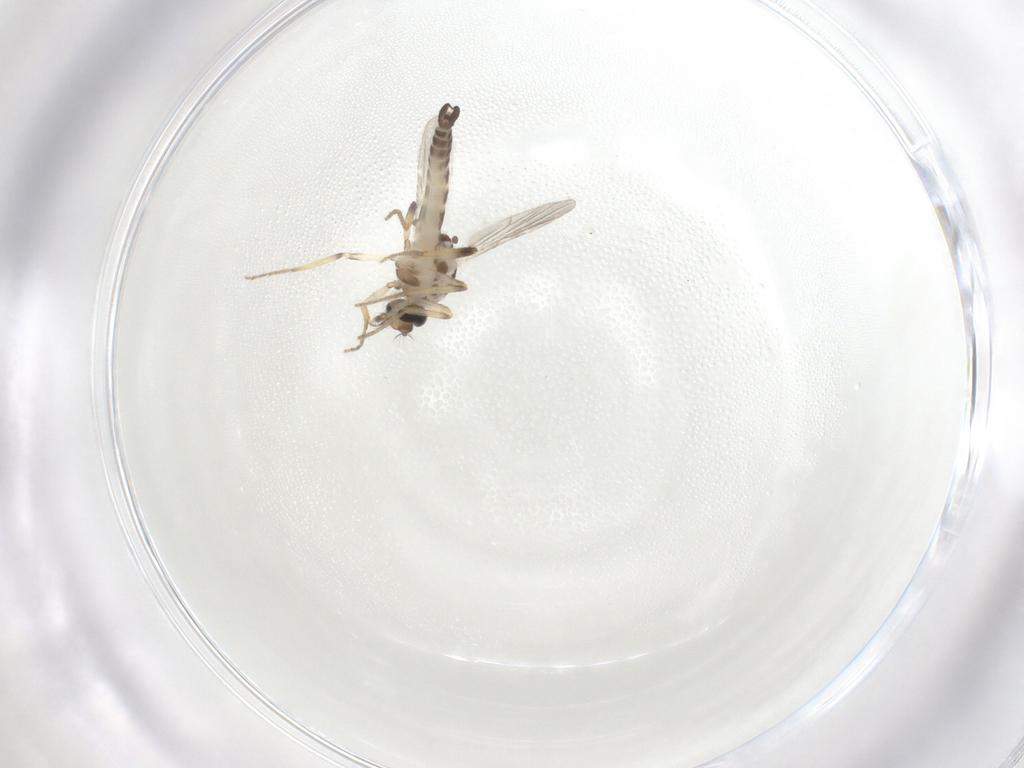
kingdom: Animalia
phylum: Arthropoda
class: Insecta
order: Diptera
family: Ceratopogonidae
